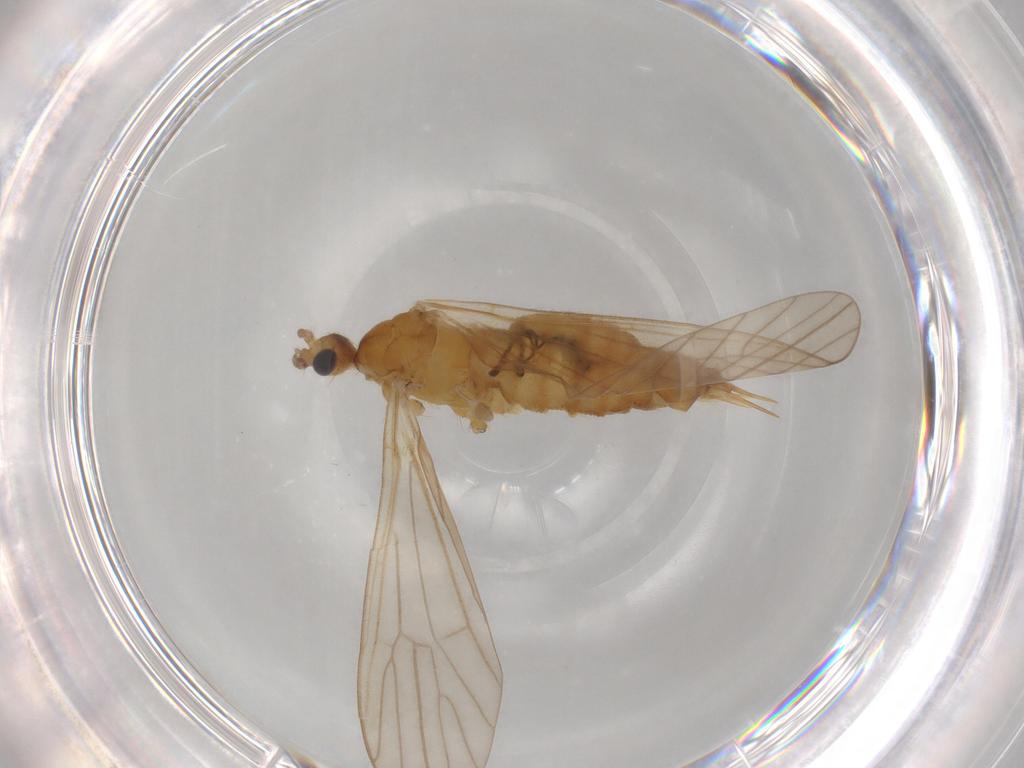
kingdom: Animalia
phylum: Arthropoda
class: Insecta
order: Diptera
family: Limoniidae
